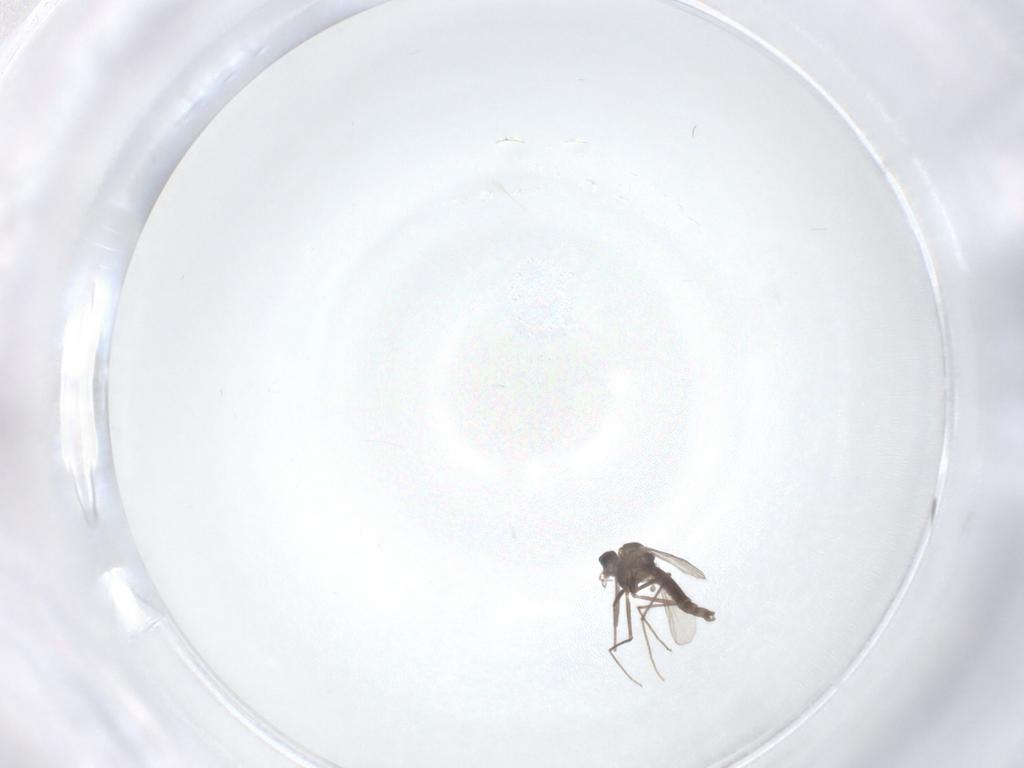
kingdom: Animalia
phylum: Arthropoda
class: Insecta
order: Diptera
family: Chironomidae
